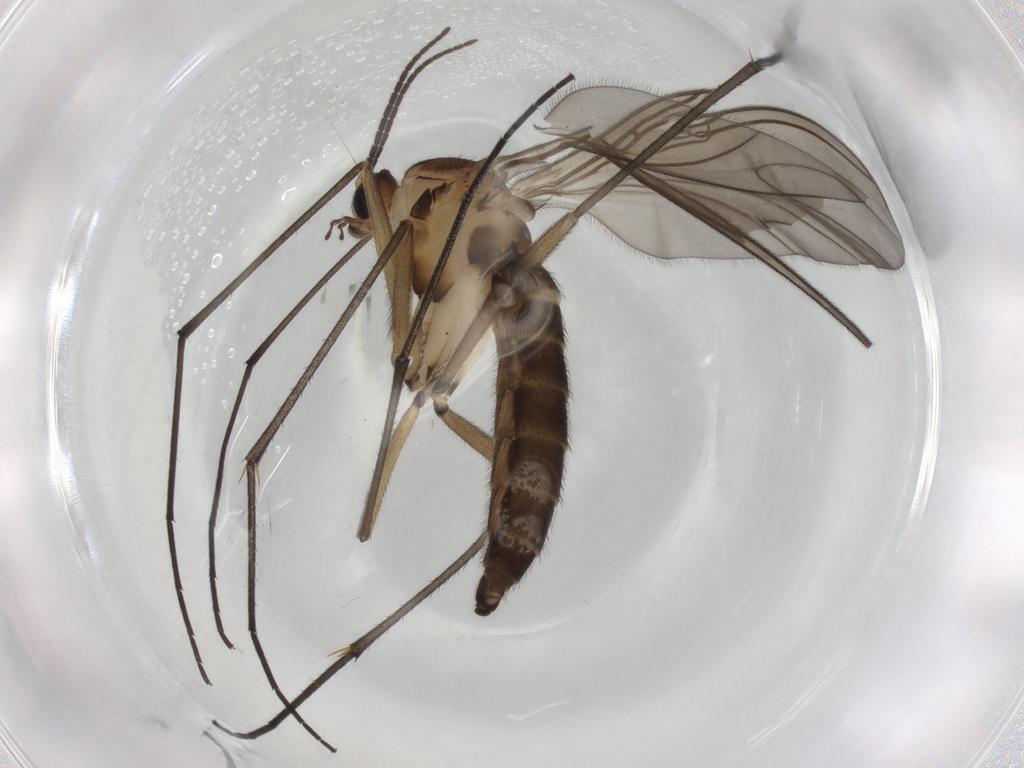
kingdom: Animalia
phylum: Arthropoda
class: Insecta
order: Diptera
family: Sciaridae
